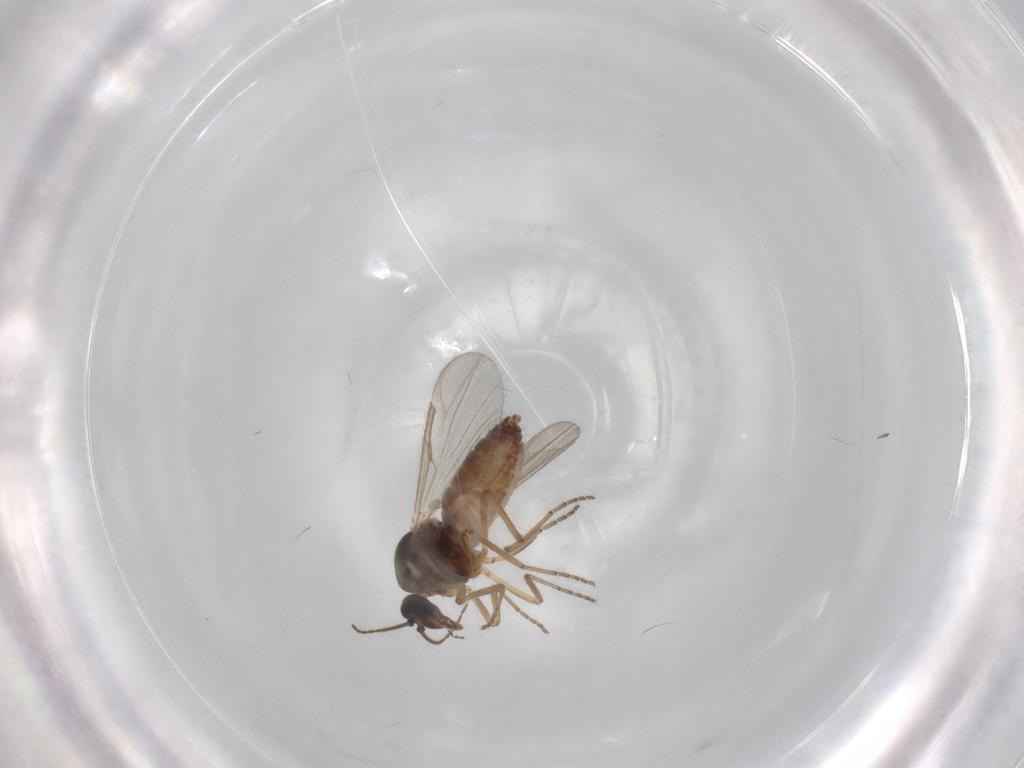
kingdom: Animalia
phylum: Arthropoda
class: Insecta
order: Diptera
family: Ceratopogonidae
